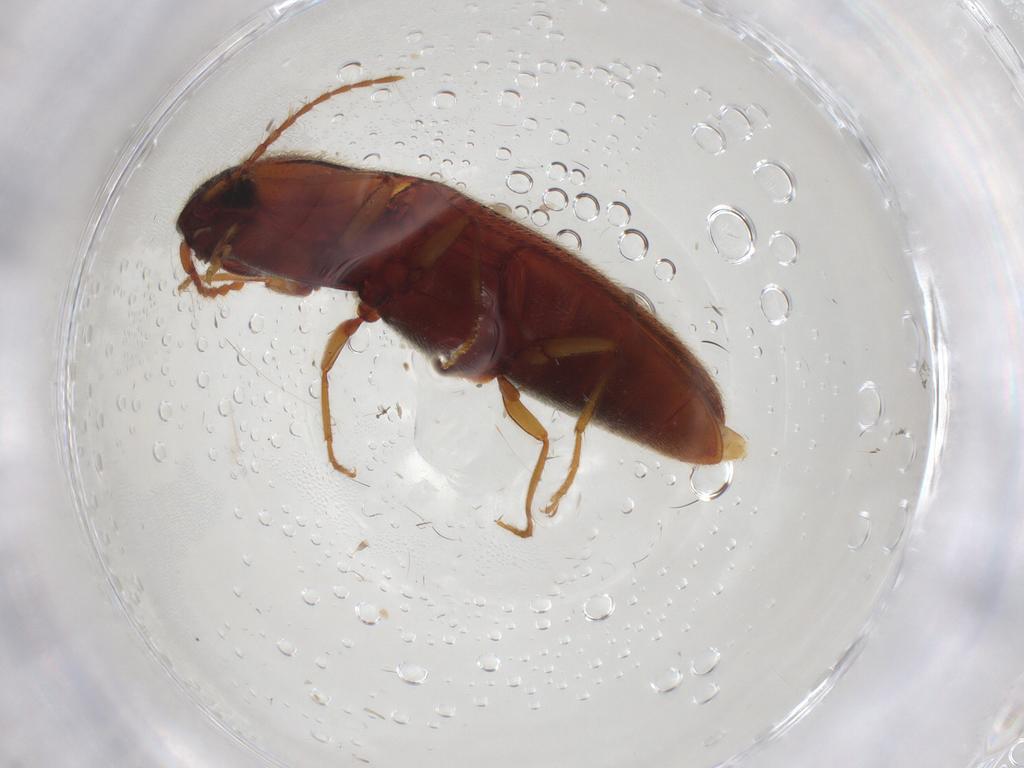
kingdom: Animalia
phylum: Arthropoda
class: Insecta
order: Coleoptera
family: Elateridae
